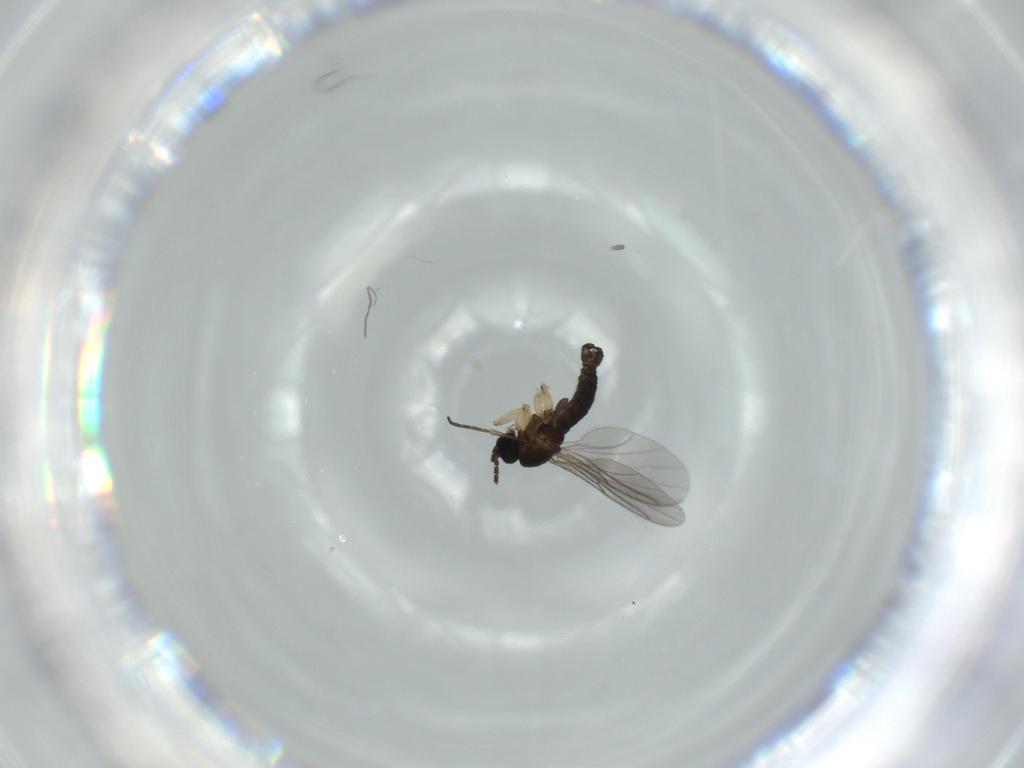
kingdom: Animalia
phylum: Arthropoda
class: Insecta
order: Diptera
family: Sciaridae
